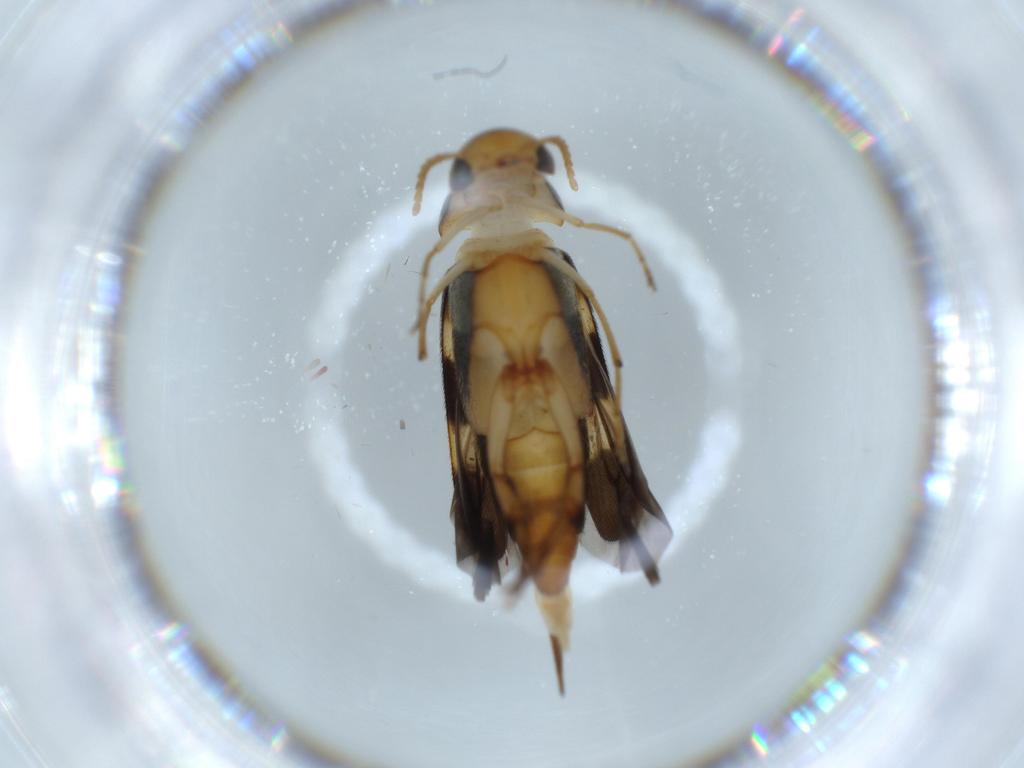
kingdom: Animalia
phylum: Arthropoda
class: Insecta
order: Coleoptera
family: Mordellidae
